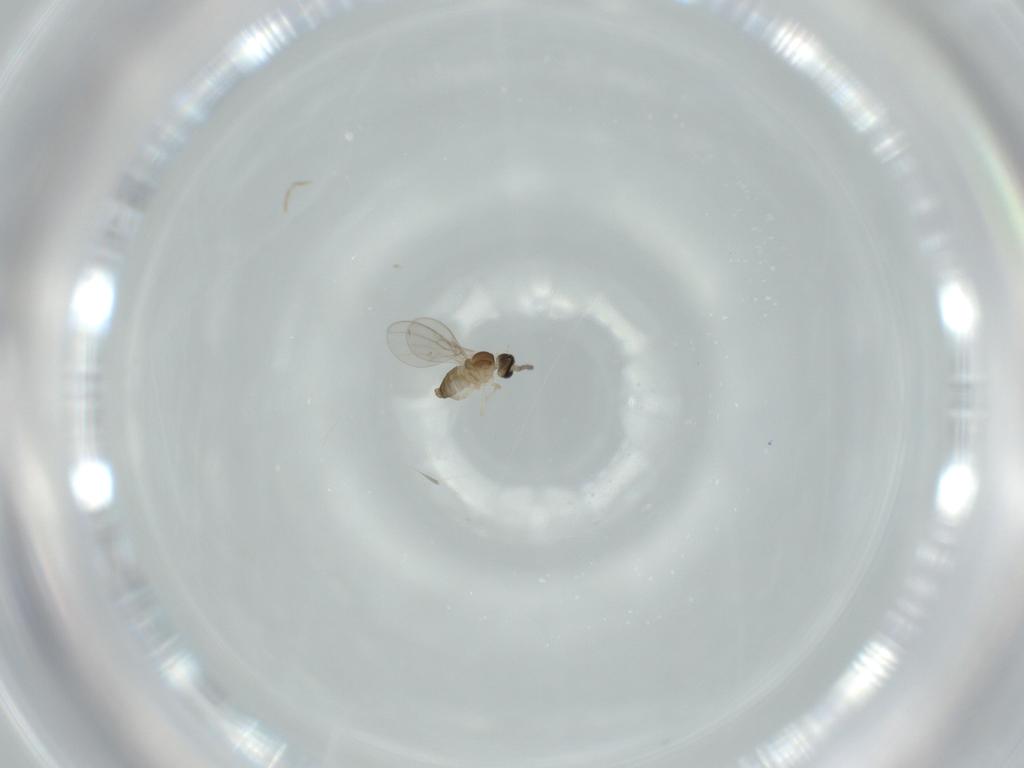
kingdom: Animalia
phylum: Arthropoda
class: Insecta
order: Diptera
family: Cecidomyiidae
